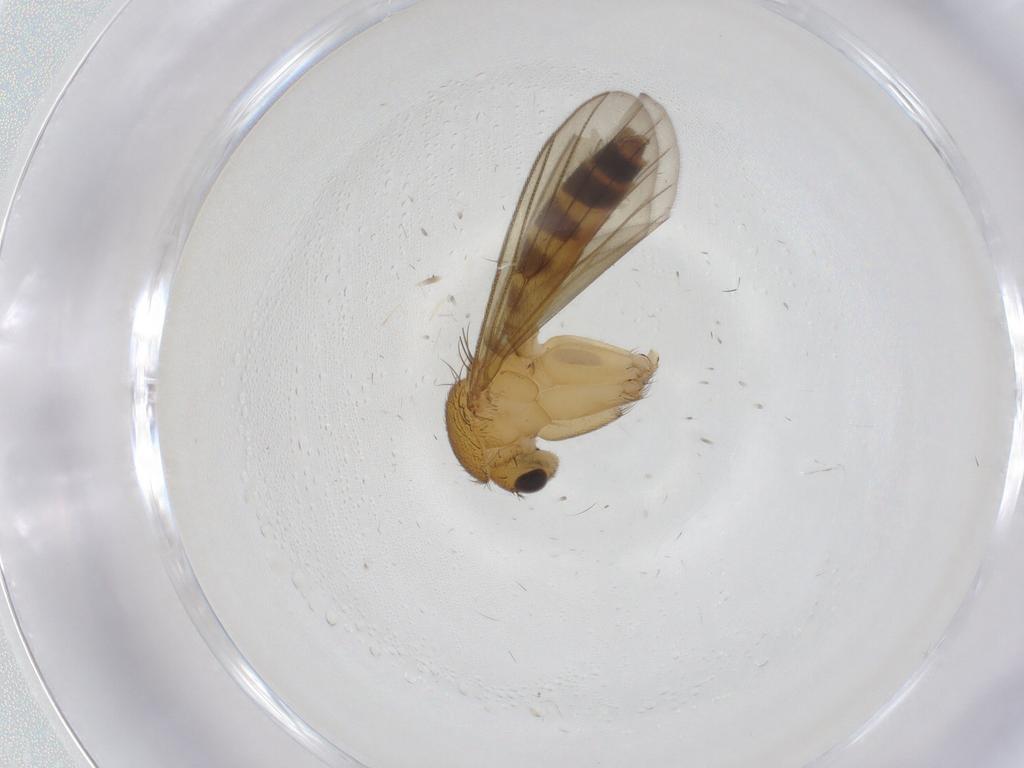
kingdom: Animalia
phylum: Arthropoda
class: Insecta
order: Diptera
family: Mycetophilidae
